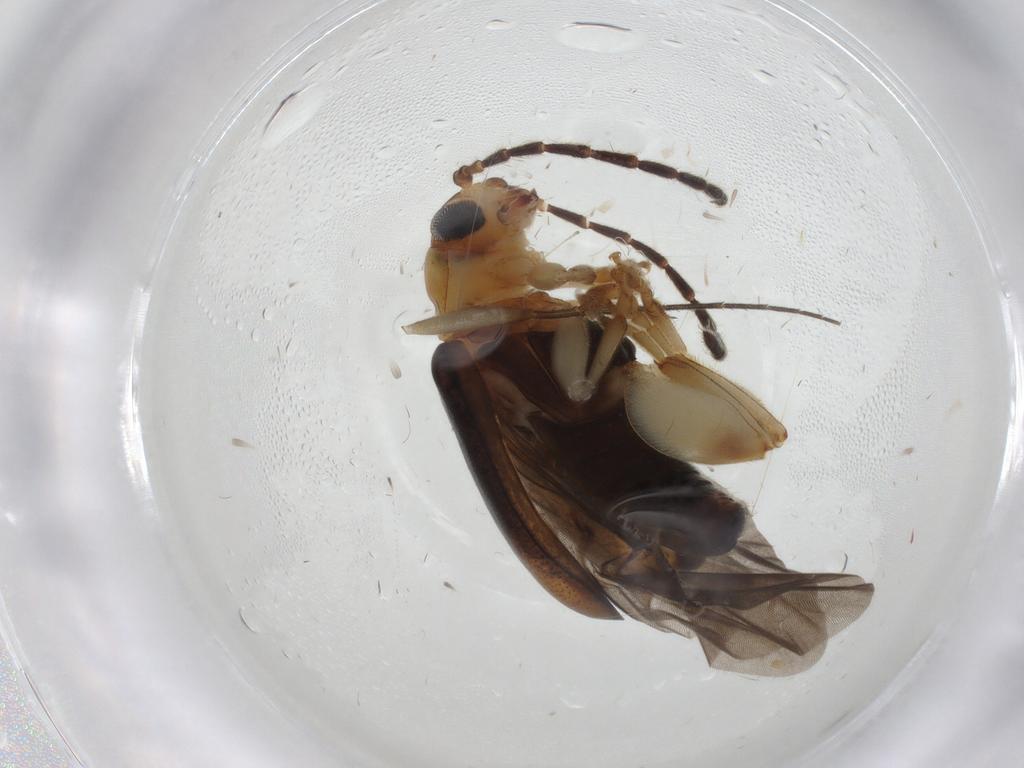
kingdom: Animalia
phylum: Arthropoda
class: Insecta
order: Coleoptera
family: Chrysomelidae
